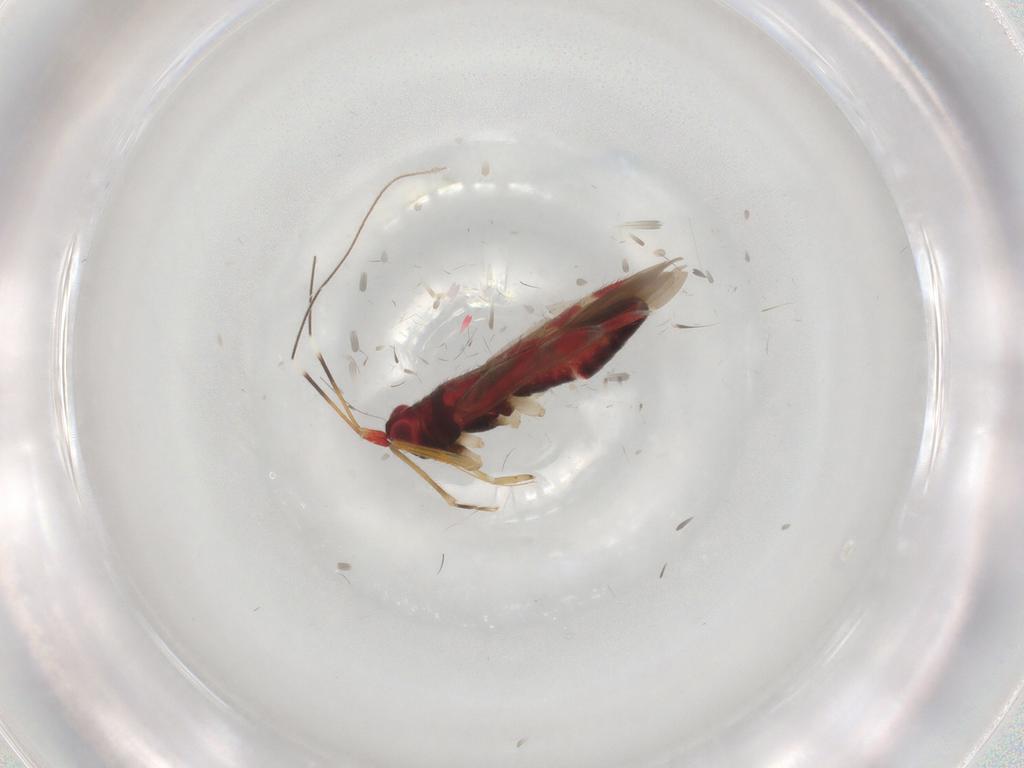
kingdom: Animalia
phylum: Arthropoda
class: Insecta
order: Hemiptera
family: Miridae
